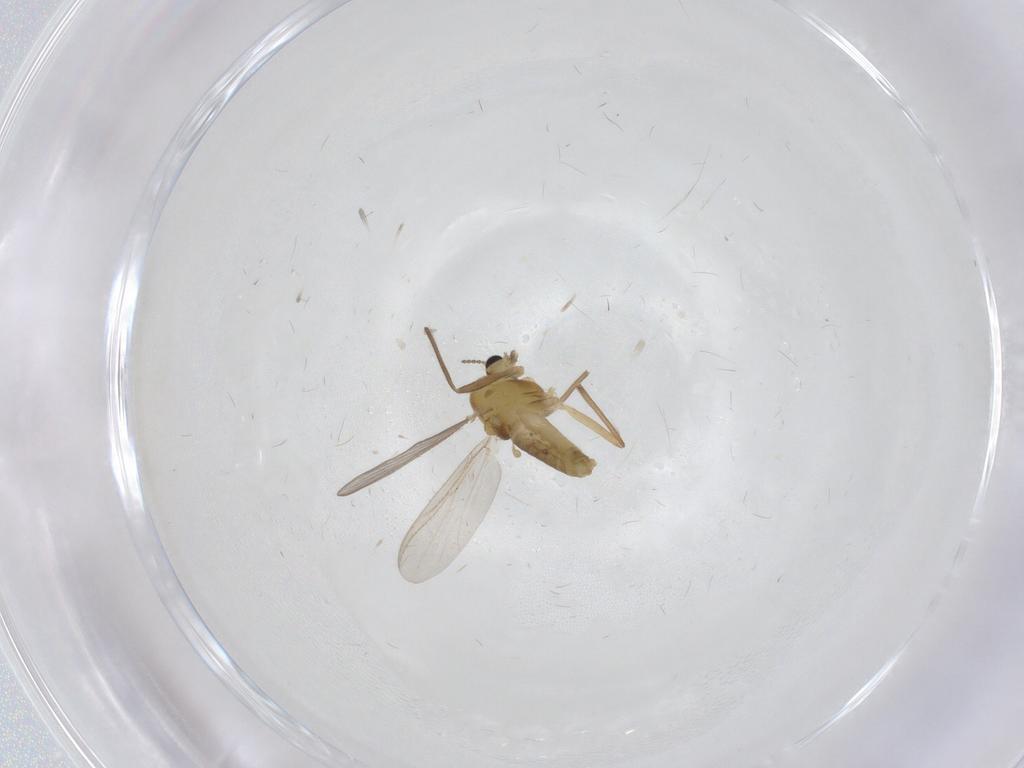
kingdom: Animalia
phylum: Arthropoda
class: Insecta
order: Diptera
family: Chironomidae
